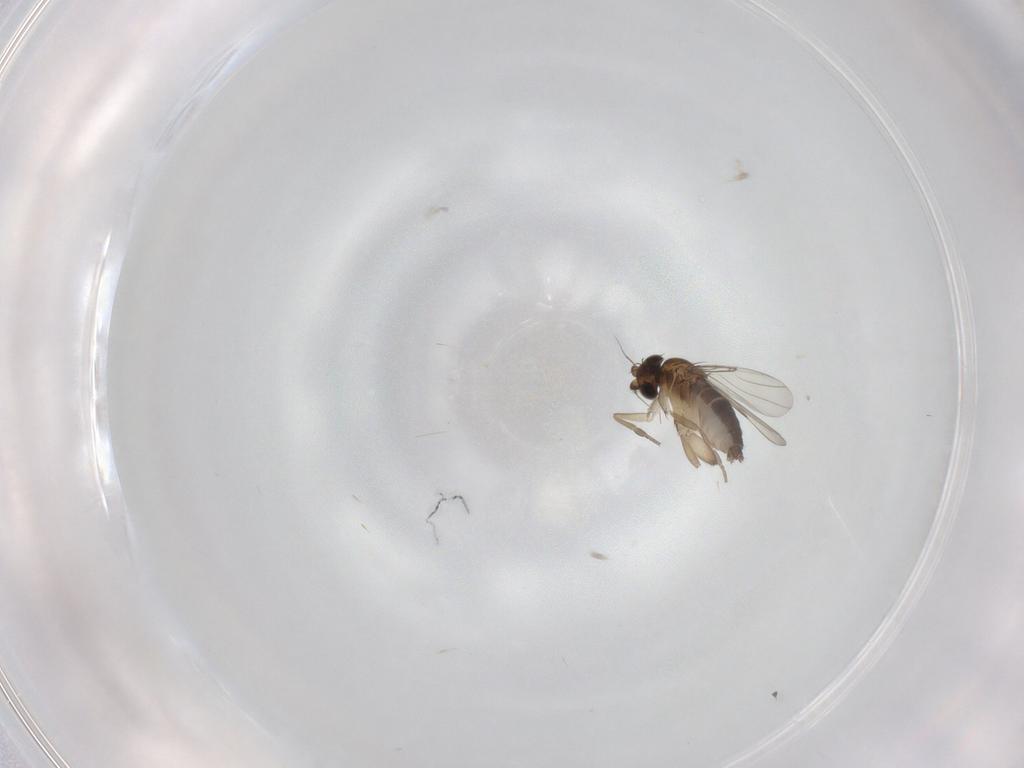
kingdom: Animalia
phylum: Arthropoda
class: Insecta
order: Diptera
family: Phoridae
